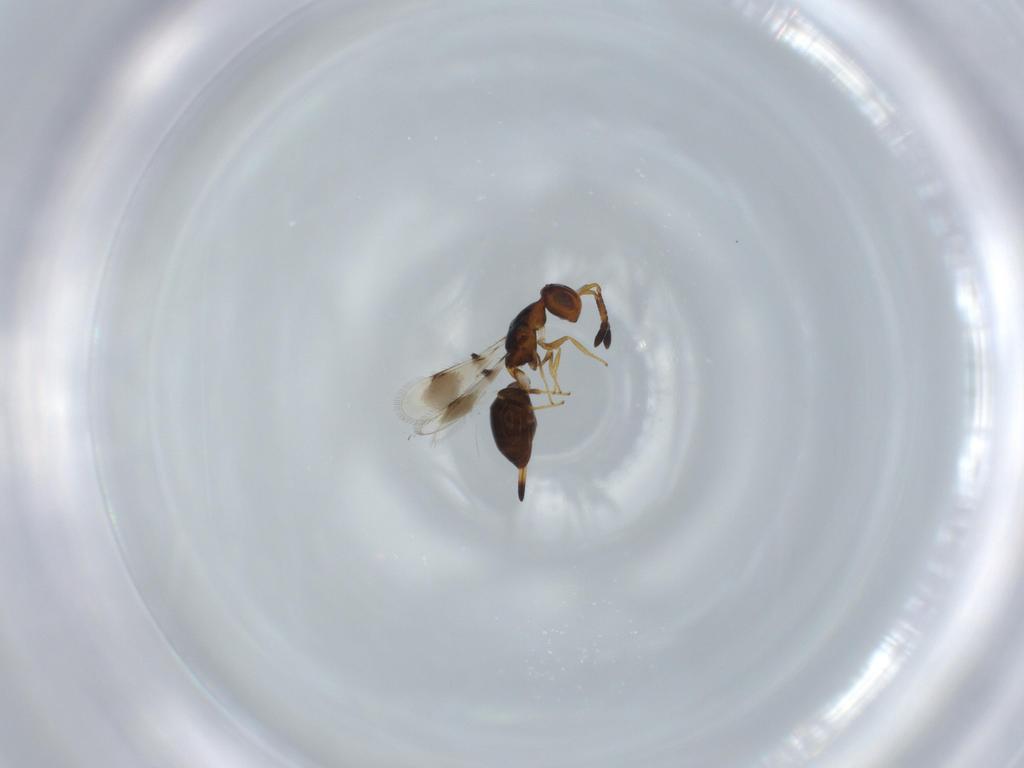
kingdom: Animalia
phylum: Arthropoda
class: Insecta
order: Hymenoptera
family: Cerocephalidae
